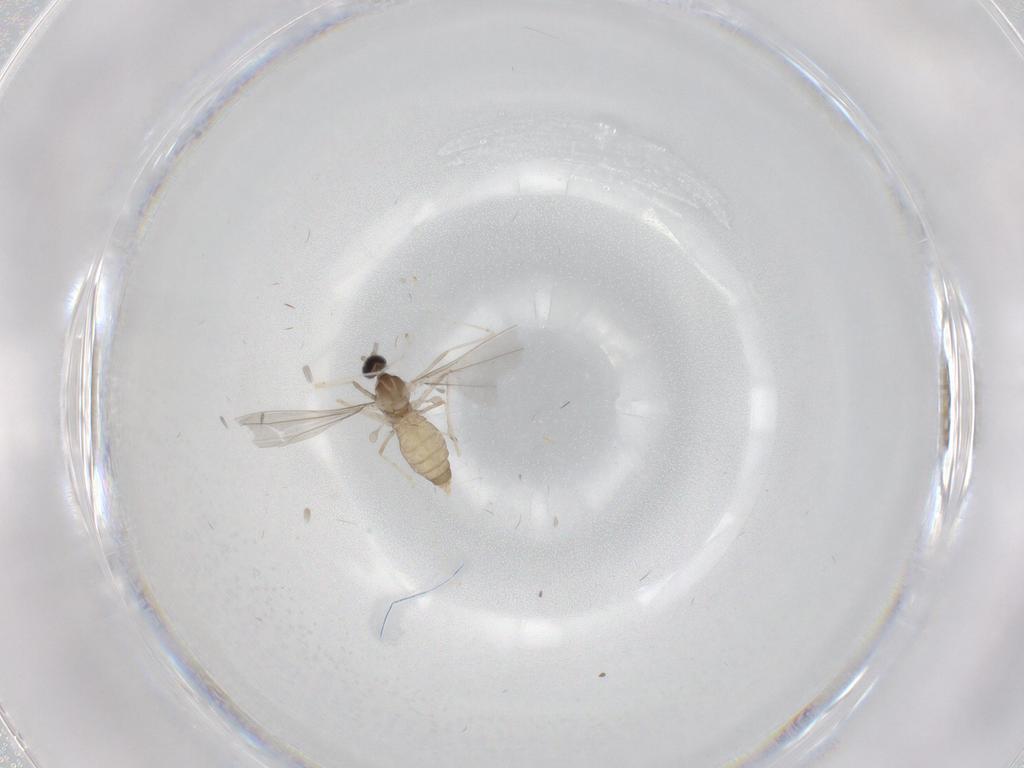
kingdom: Animalia
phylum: Arthropoda
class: Insecta
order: Diptera
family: Cecidomyiidae
